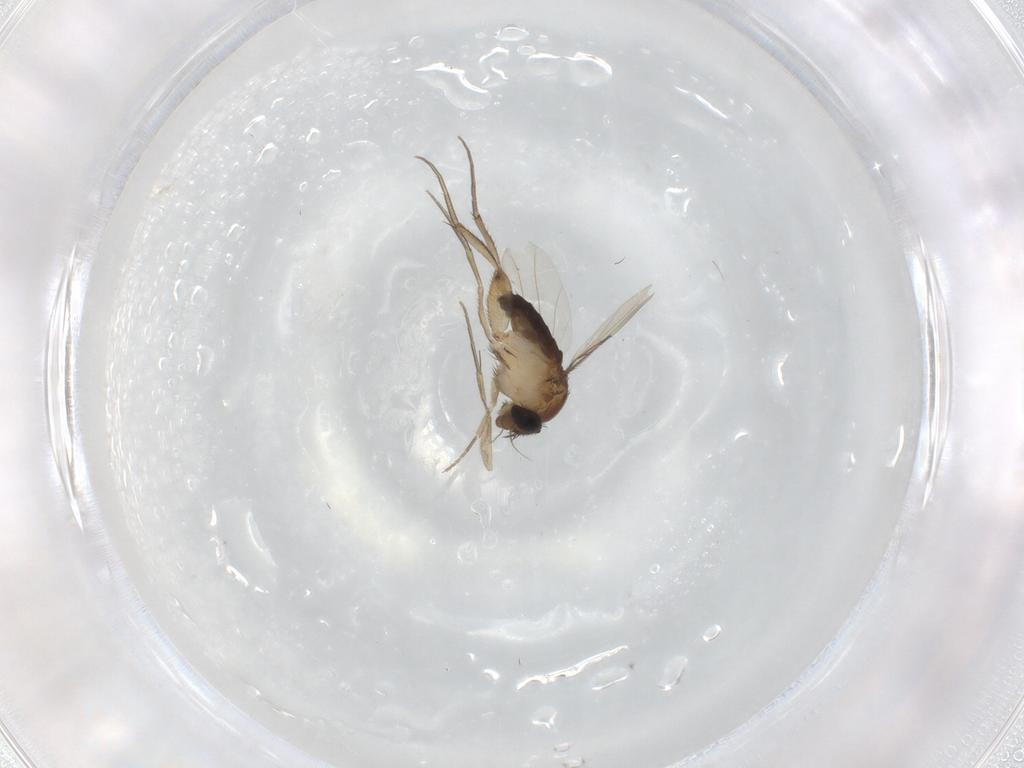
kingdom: Animalia
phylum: Arthropoda
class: Insecta
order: Diptera
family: Phoridae
